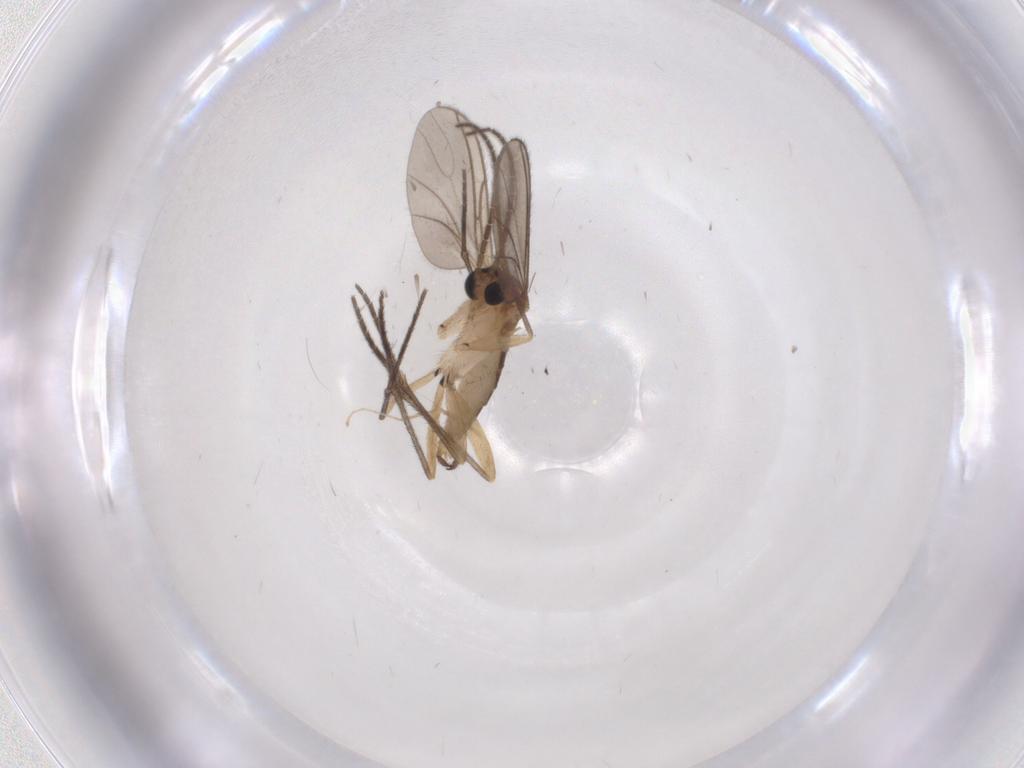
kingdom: Animalia
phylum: Arthropoda
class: Insecta
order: Diptera
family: Sciaridae
